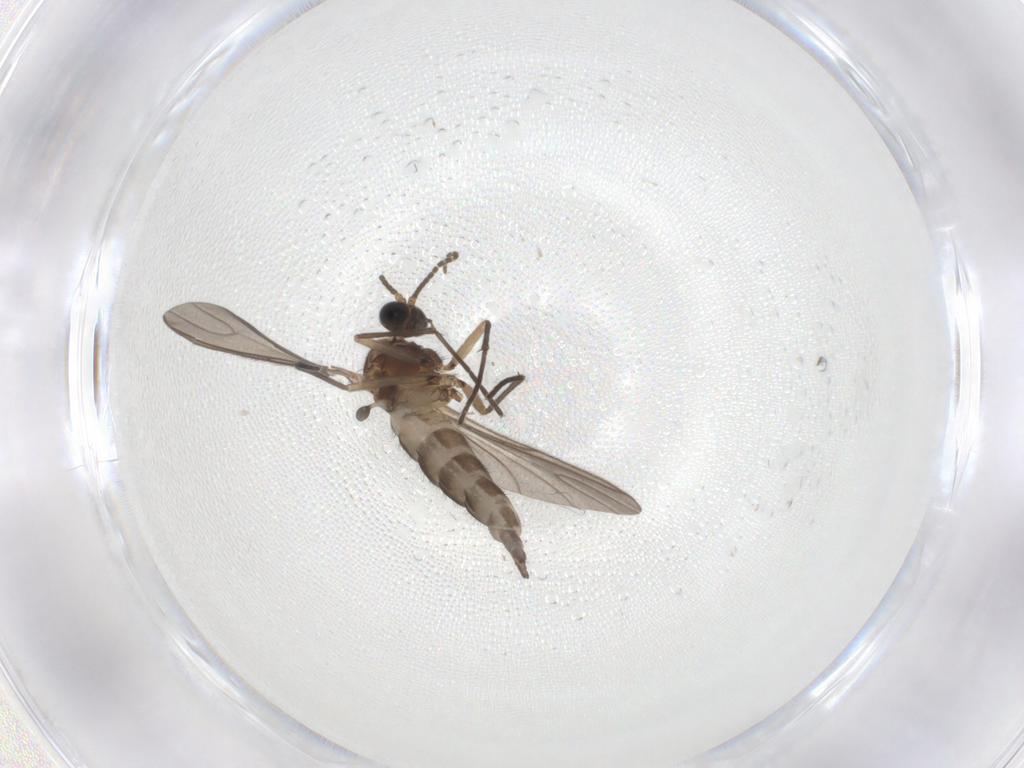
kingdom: Animalia
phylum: Arthropoda
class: Insecta
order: Diptera
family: Sciaridae
